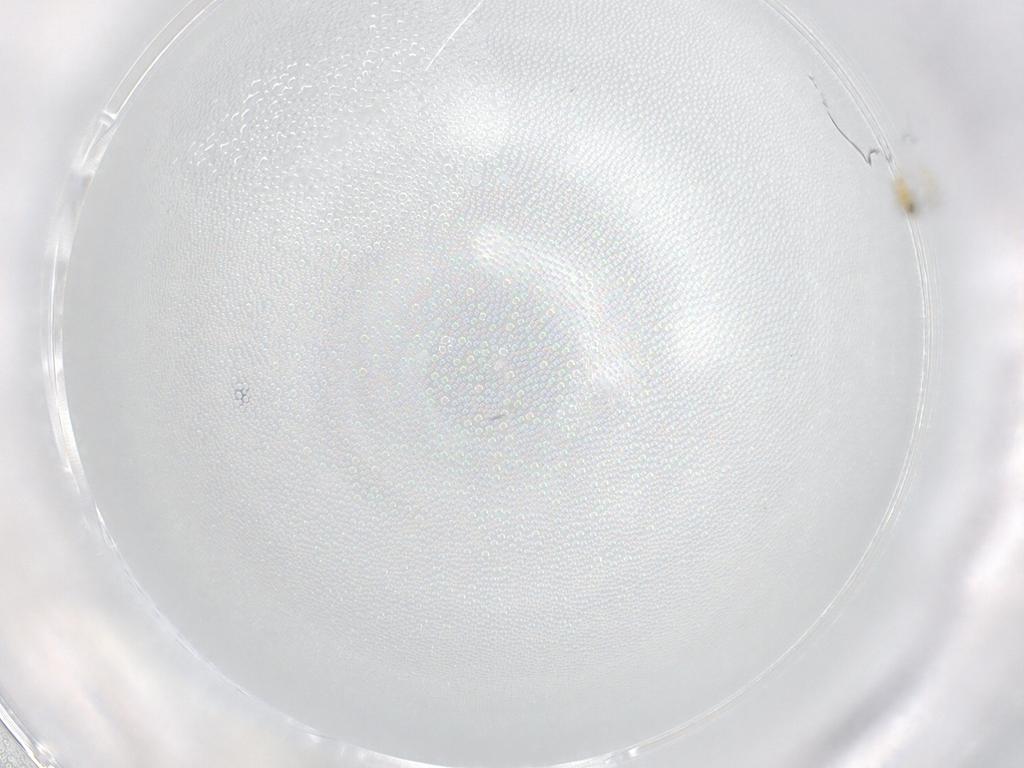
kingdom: Animalia
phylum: Arthropoda
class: Insecta
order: Hymenoptera
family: Trichogrammatidae
